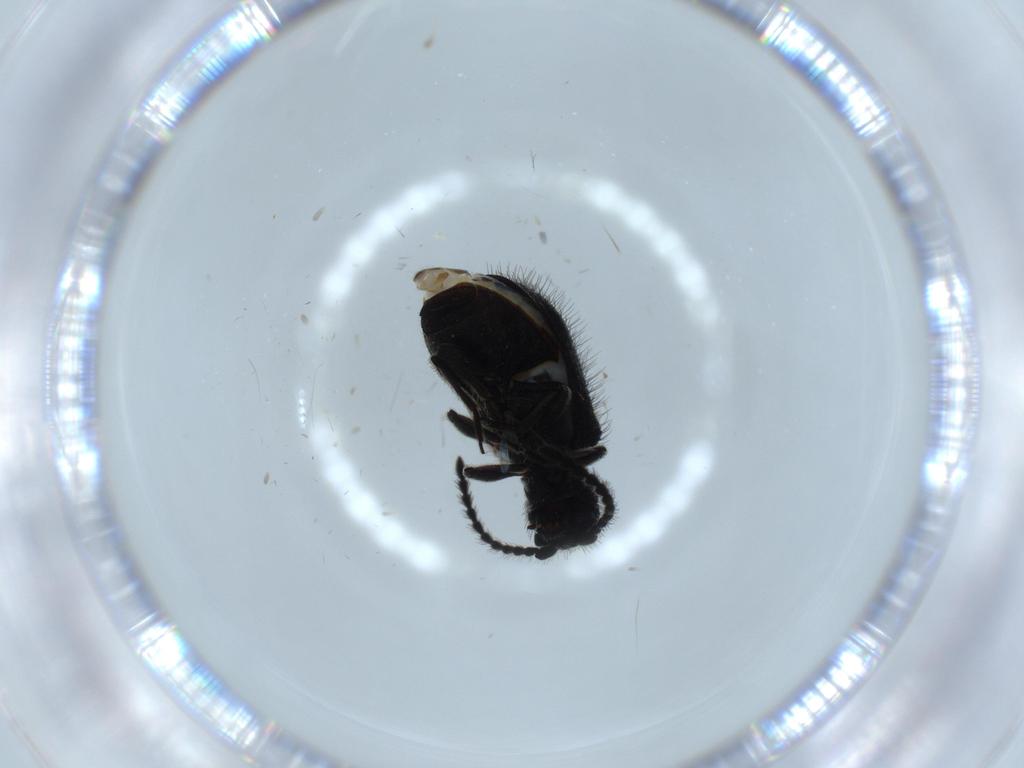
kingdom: Animalia
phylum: Arthropoda
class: Insecta
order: Coleoptera
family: Ptinidae
